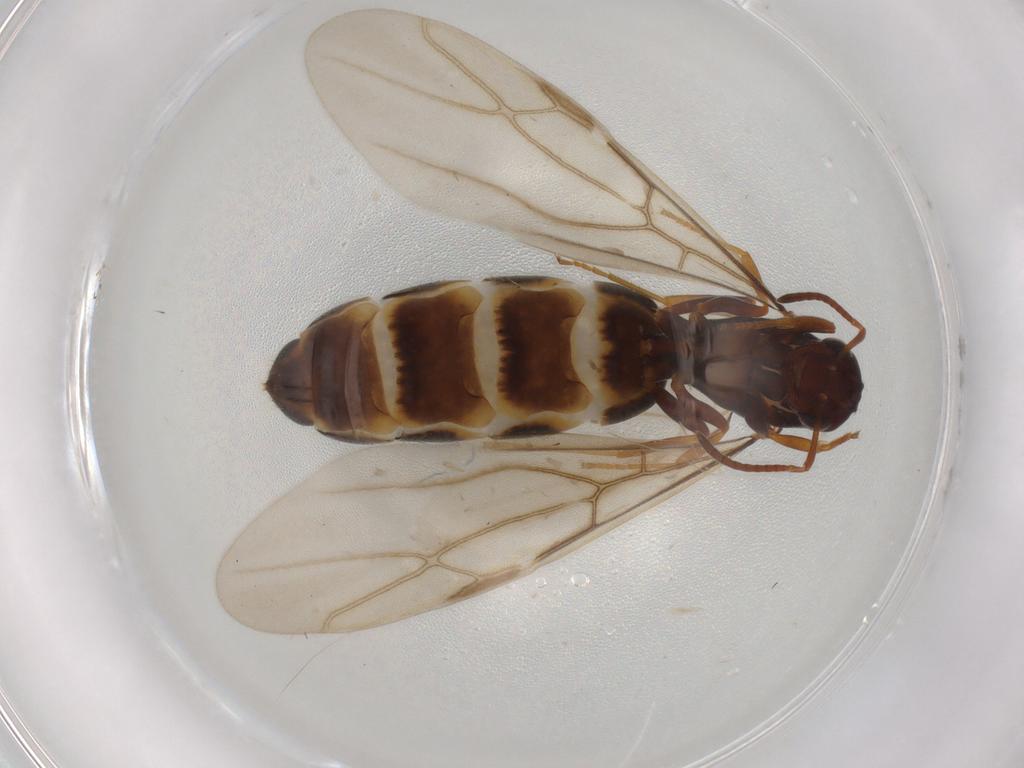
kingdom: Animalia
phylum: Arthropoda
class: Insecta
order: Hymenoptera
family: Formicidae
